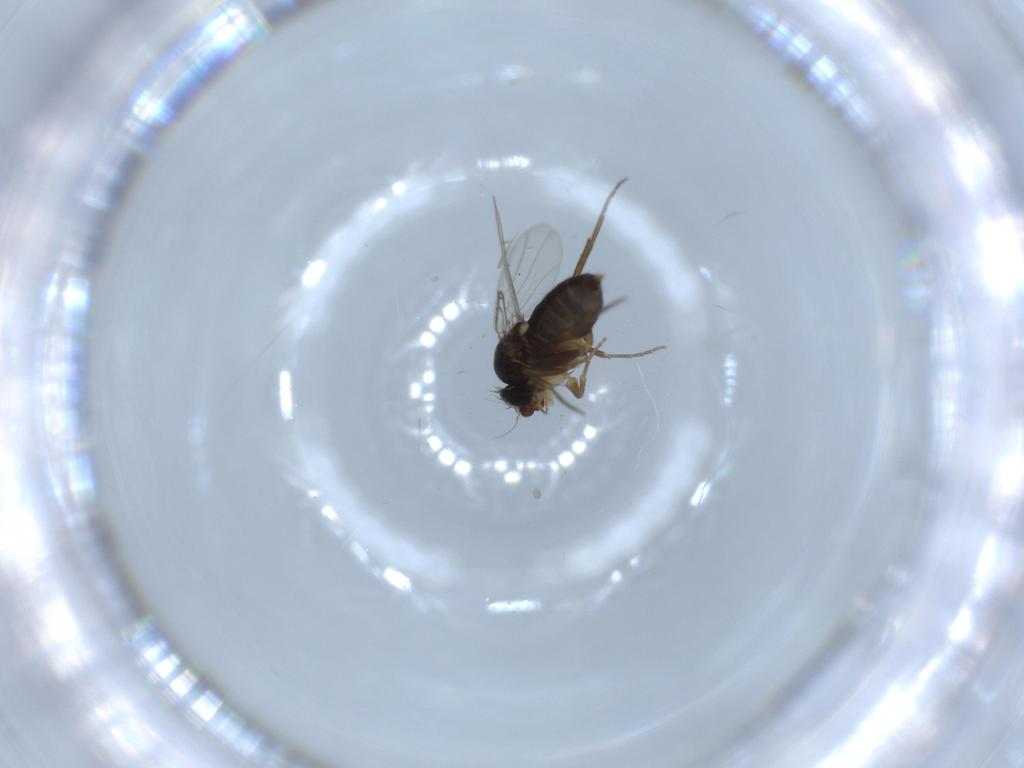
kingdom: Animalia
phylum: Arthropoda
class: Insecta
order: Diptera
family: Phoridae
